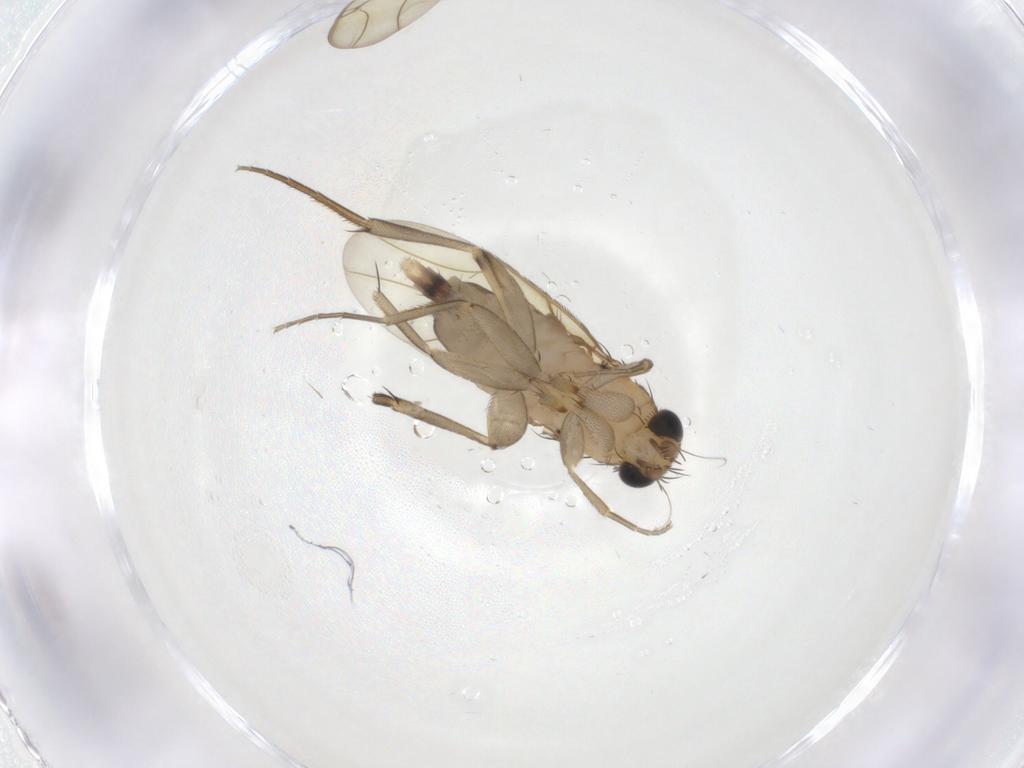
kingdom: Animalia
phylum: Arthropoda
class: Insecta
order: Diptera
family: Phoridae
